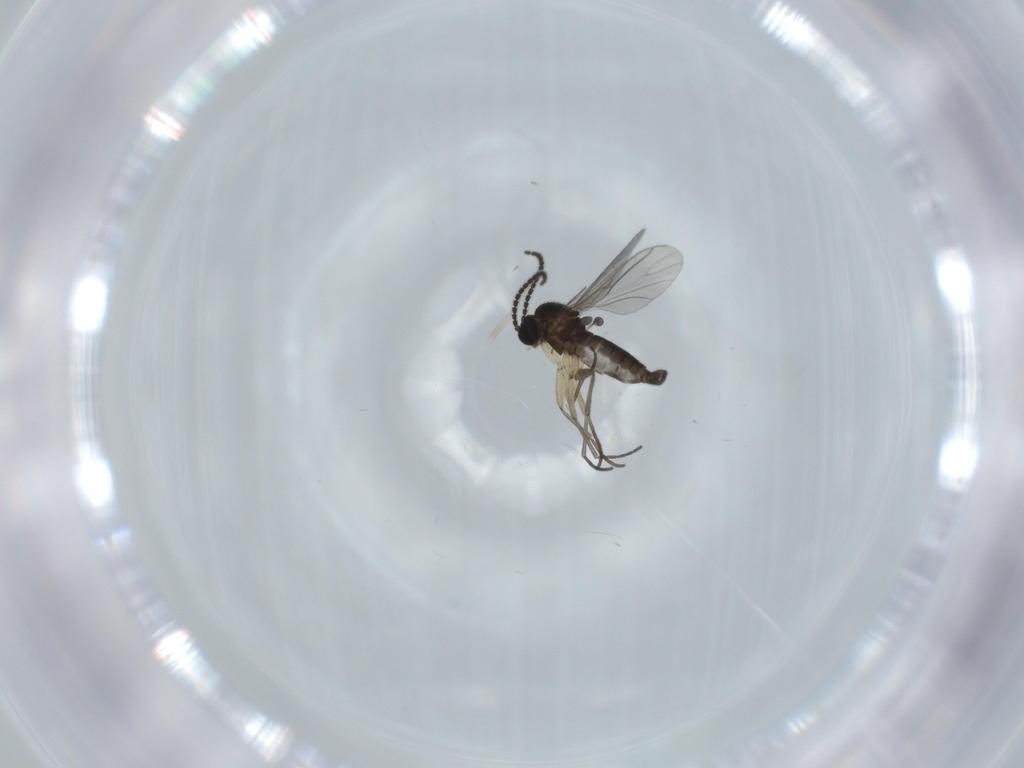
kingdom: Animalia
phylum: Arthropoda
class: Insecta
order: Diptera
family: Sciaridae
